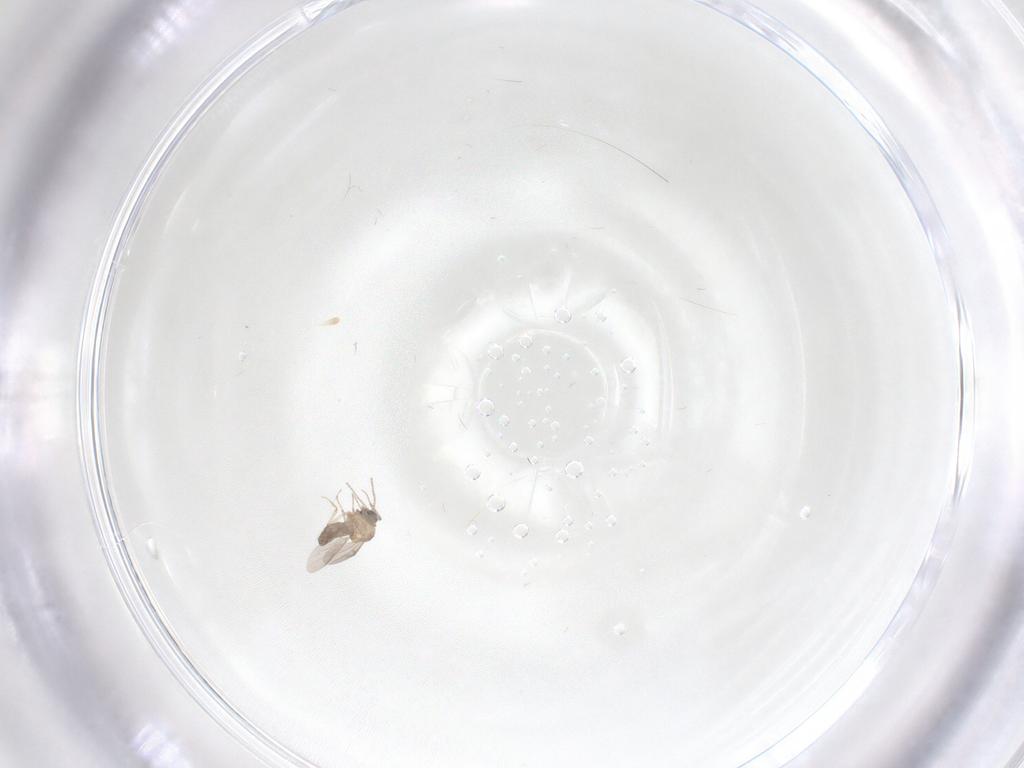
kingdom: Animalia
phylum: Arthropoda
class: Insecta
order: Diptera
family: Ceratopogonidae
